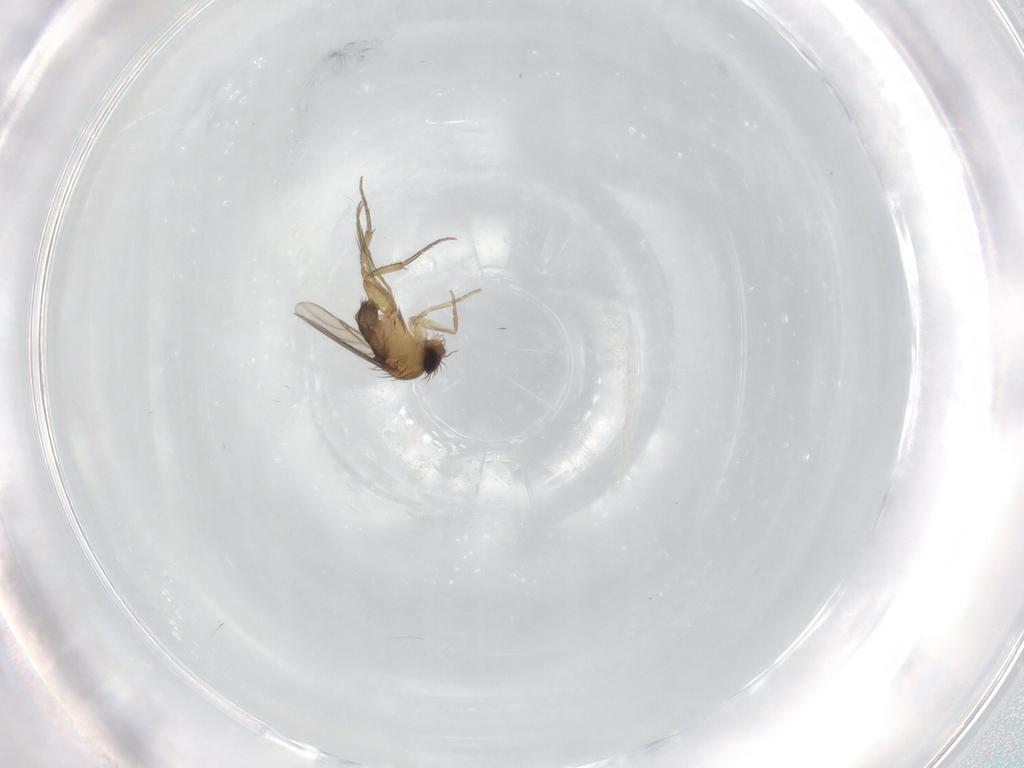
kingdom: Animalia
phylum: Arthropoda
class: Insecta
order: Diptera
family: Phoridae
